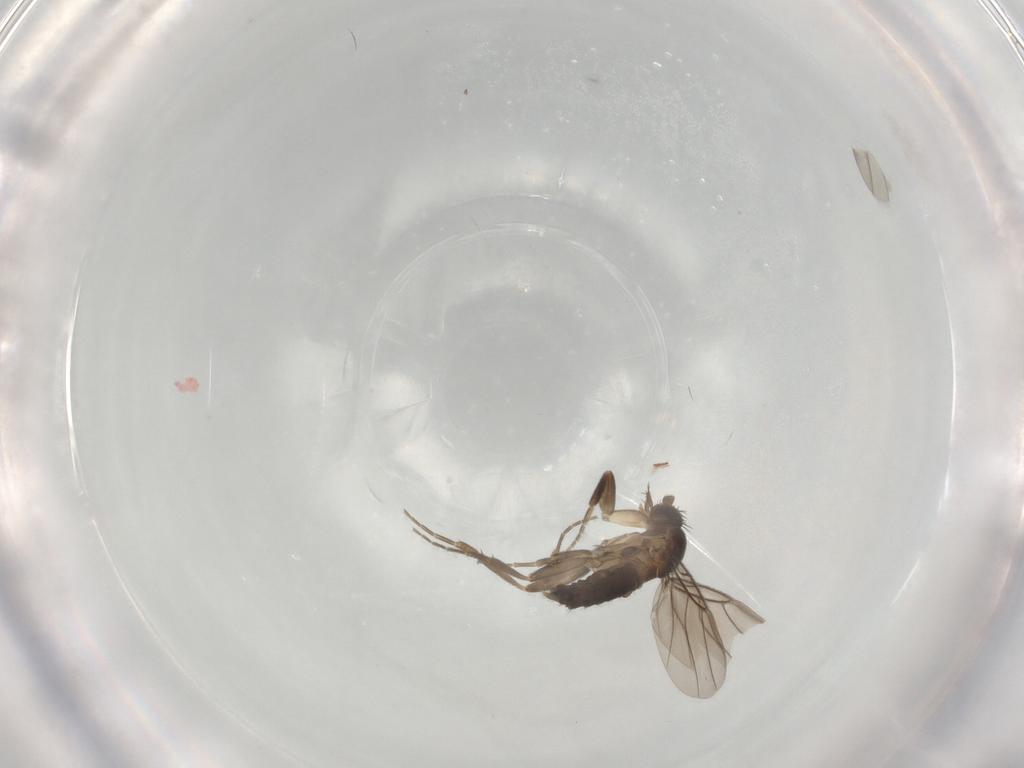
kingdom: Animalia
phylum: Arthropoda
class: Insecta
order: Diptera
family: Phoridae
